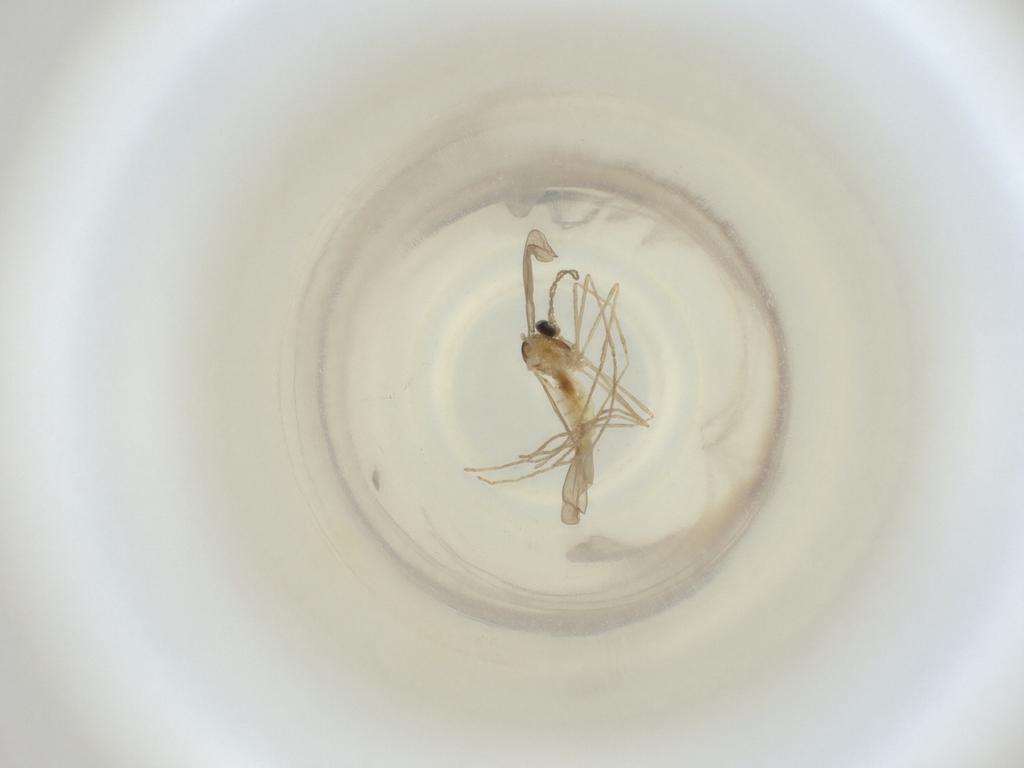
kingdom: Animalia
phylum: Arthropoda
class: Insecta
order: Diptera
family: Cecidomyiidae
